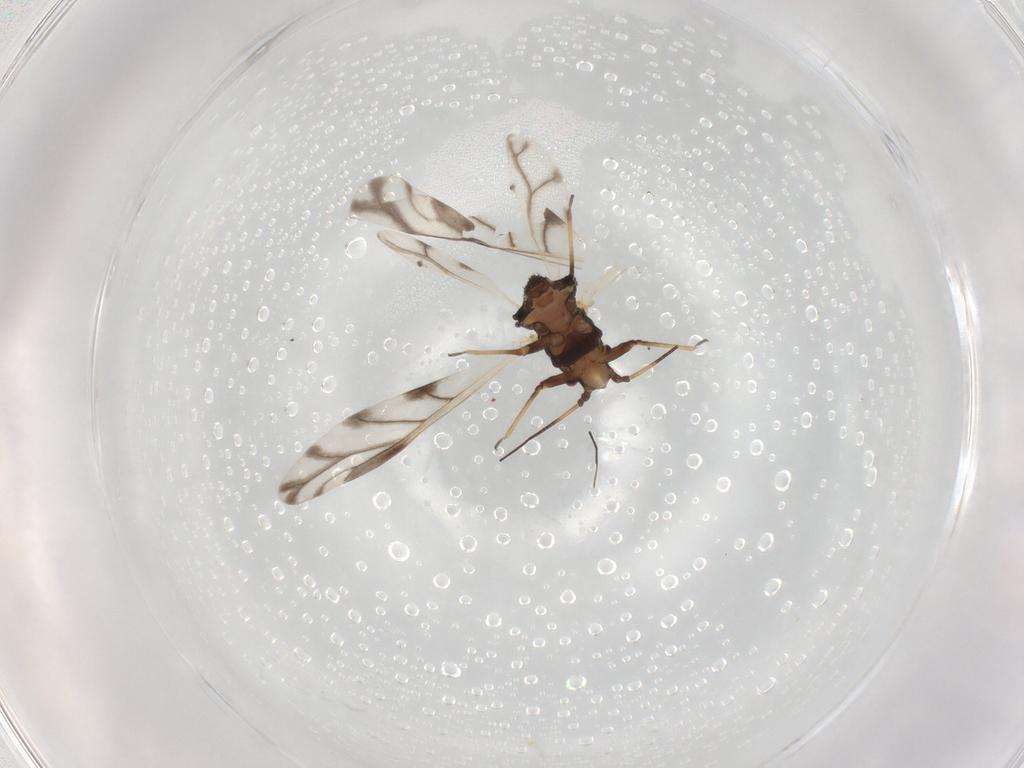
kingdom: Animalia
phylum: Arthropoda
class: Insecta
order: Hemiptera
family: Aphididae
